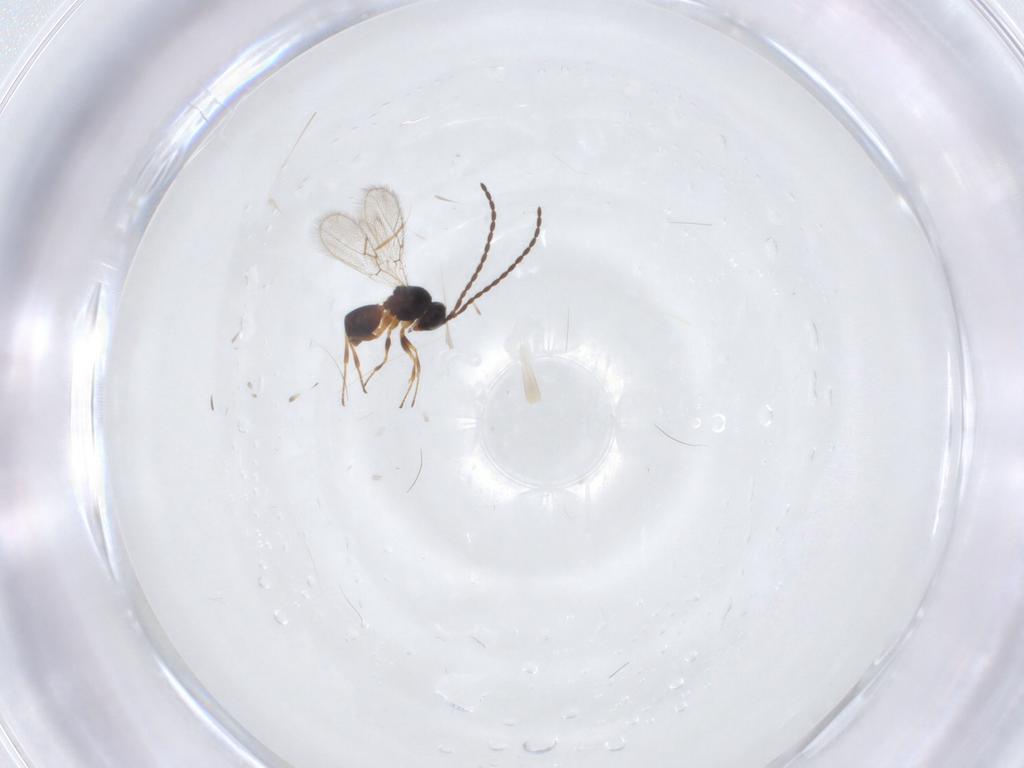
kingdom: Animalia
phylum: Arthropoda
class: Insecta
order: Hymenoptera
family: Figitidae
